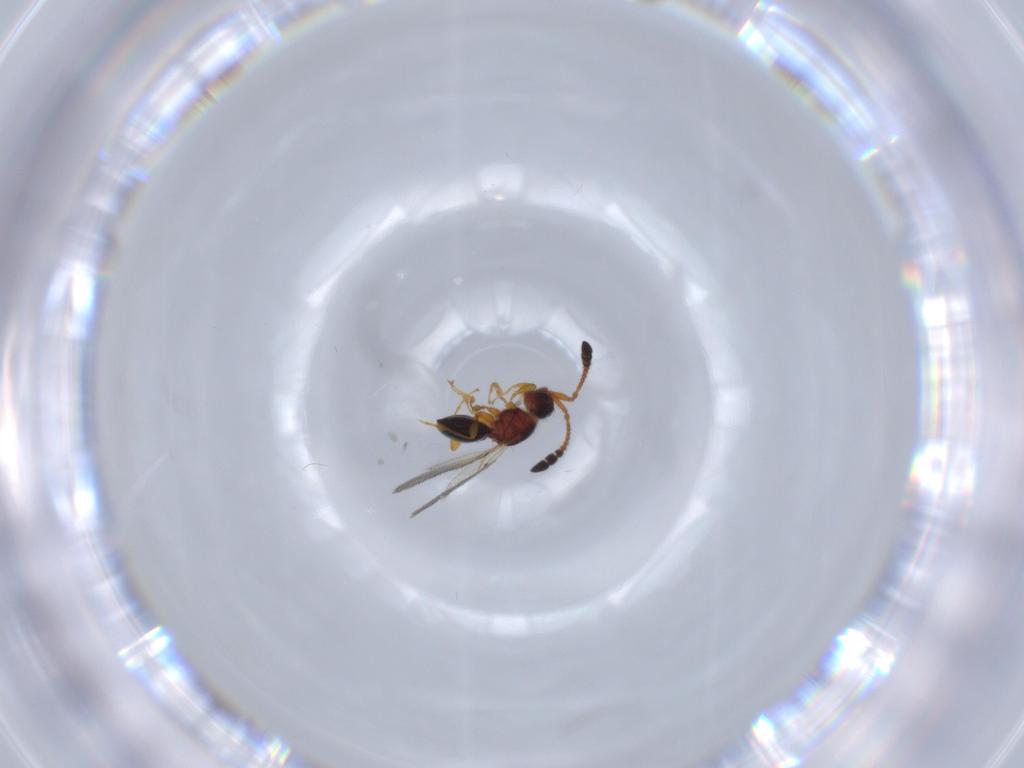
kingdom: Animalia
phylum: Arthropoda
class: Insecta
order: Hymenoptera
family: Diapriidae
